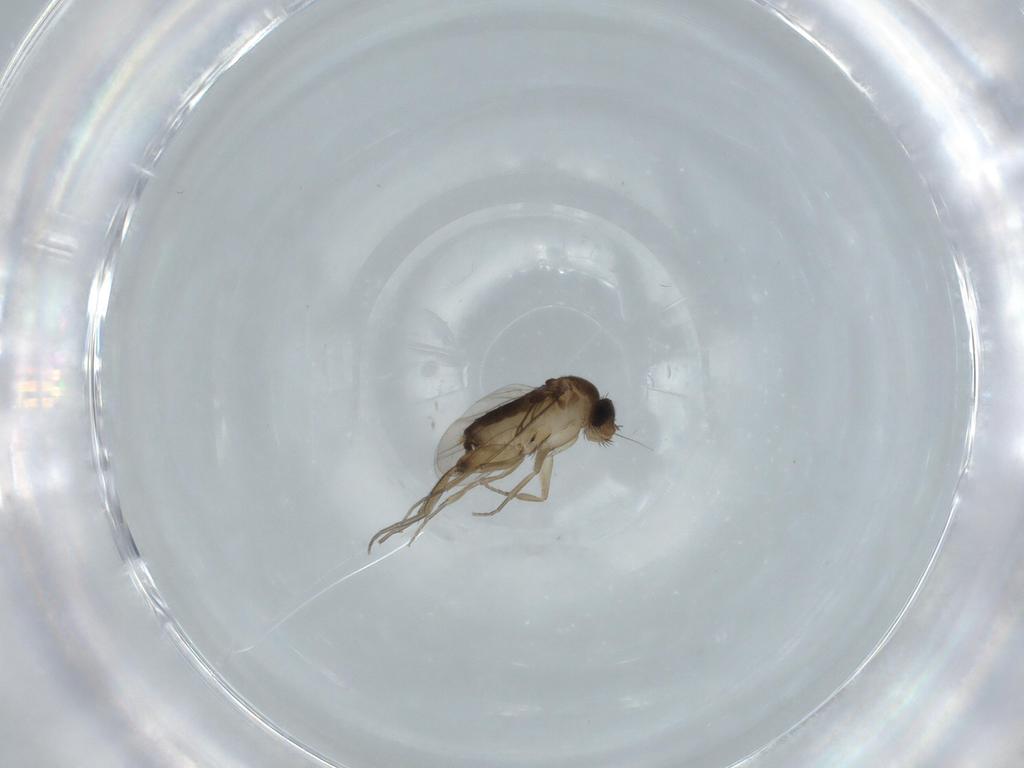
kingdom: Animalia
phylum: Arthropoda
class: Insecta
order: Diptera
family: Phoridae
